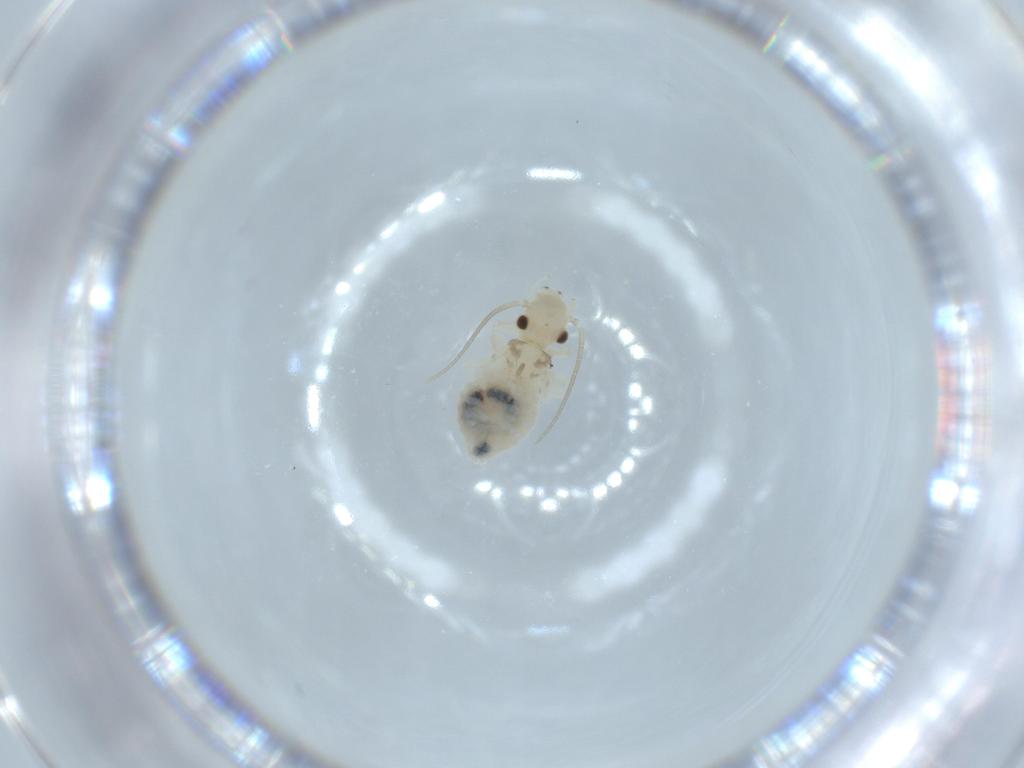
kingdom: Animalia
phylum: Arthropoda
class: Insecta
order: Psocodea
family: Caeciliusidae
